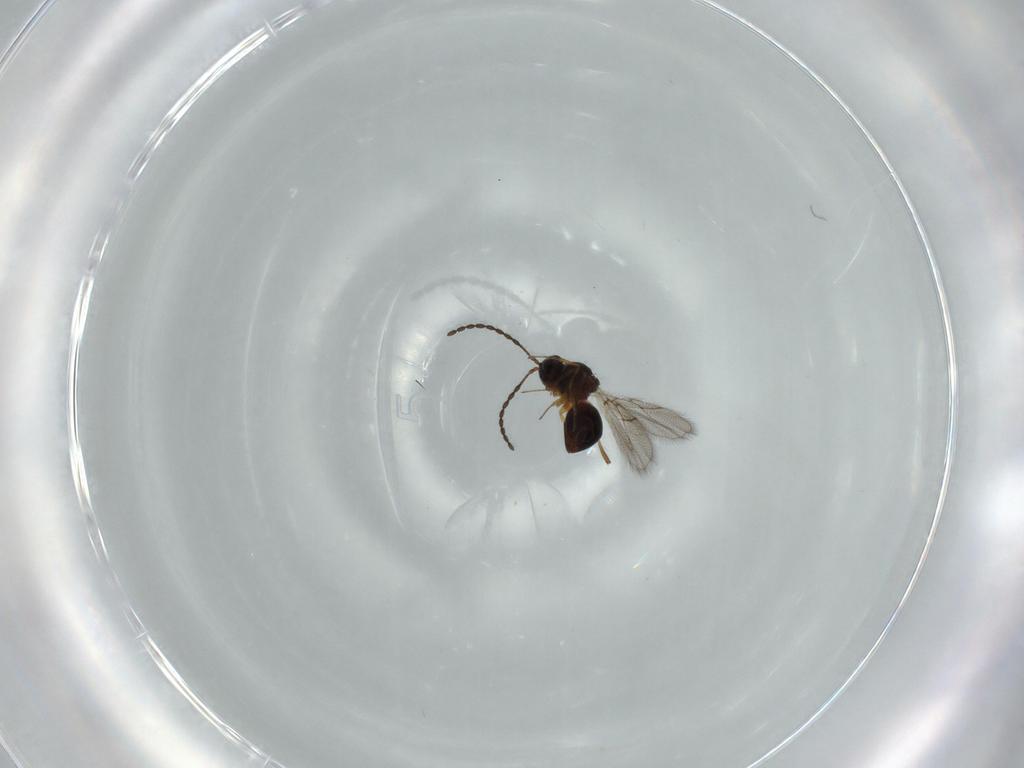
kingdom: Animalia
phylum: Arthropoda
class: Insecta
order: Hymenoptera
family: Figitidae
